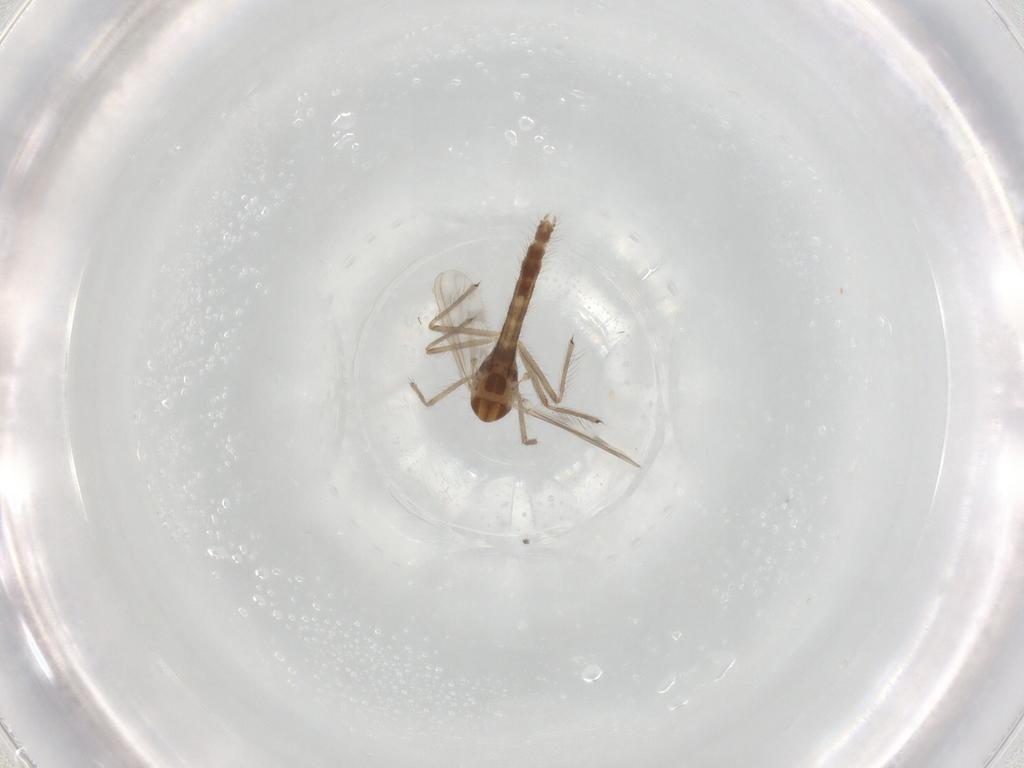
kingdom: Animalia
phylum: Arthropoda
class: Insecta
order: Diptera
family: Chironomidae
